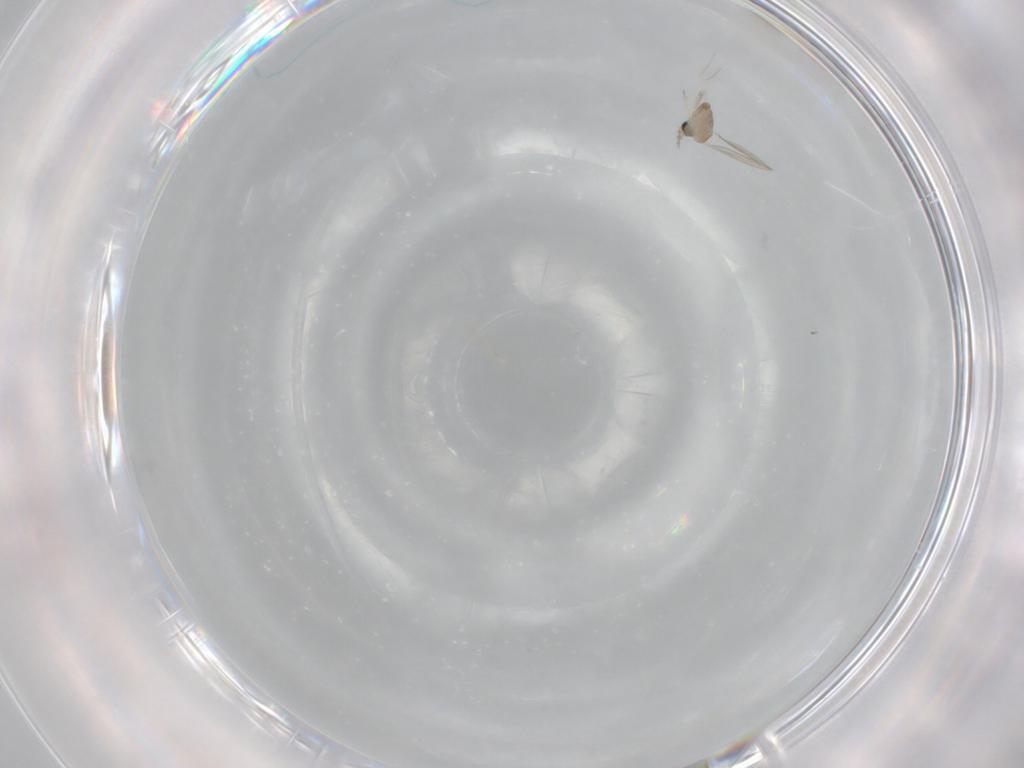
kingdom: Animalia
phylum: Arthropoda
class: Insecta
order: Diptera
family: Cecidomyiidae
